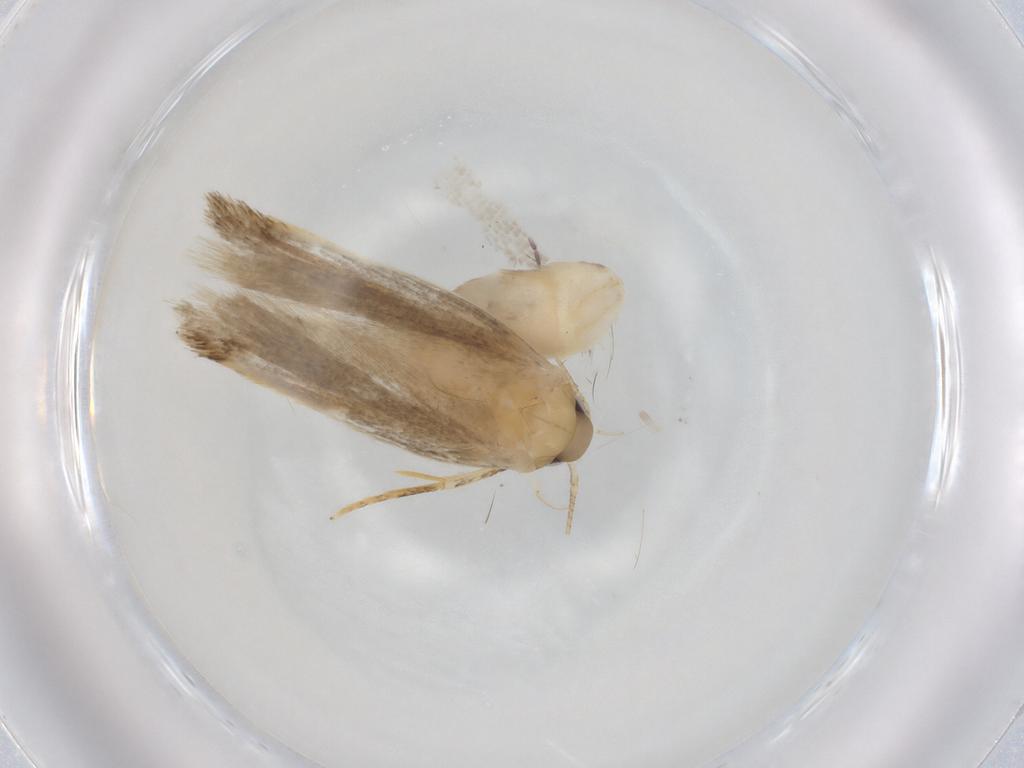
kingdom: Animalia
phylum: Arthropoda
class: Insecta
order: Lepidoptera
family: Autostichidae
